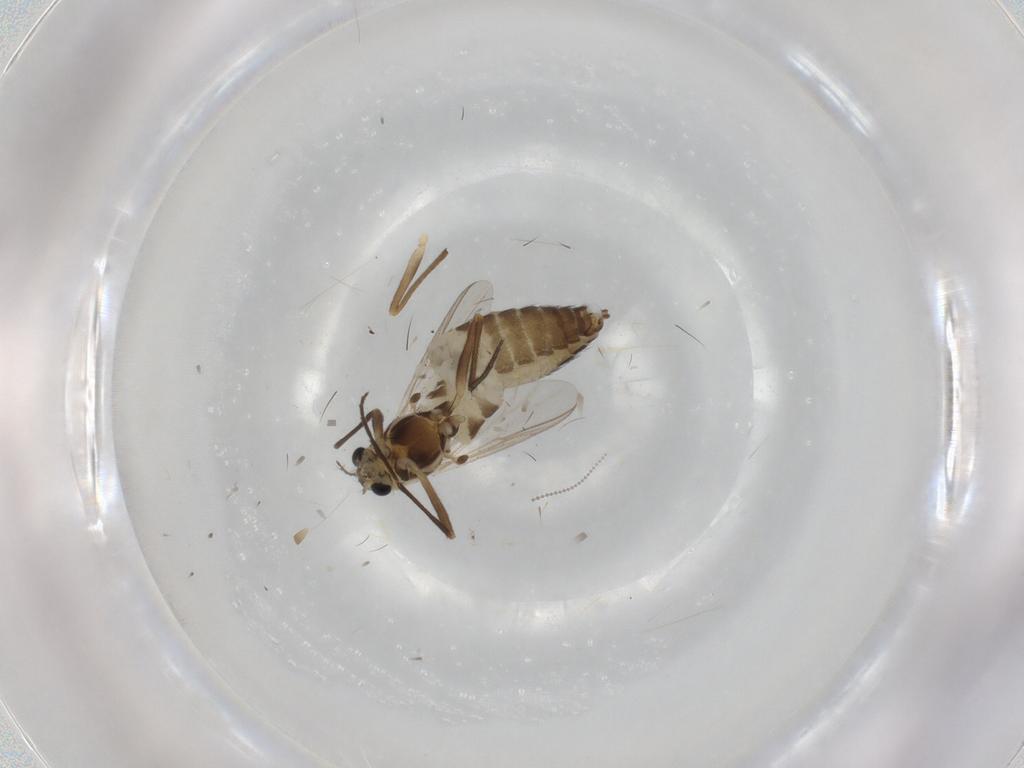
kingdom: Animalia
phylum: Arthropoda
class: Insecta
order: Diptera
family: Chironomidae
